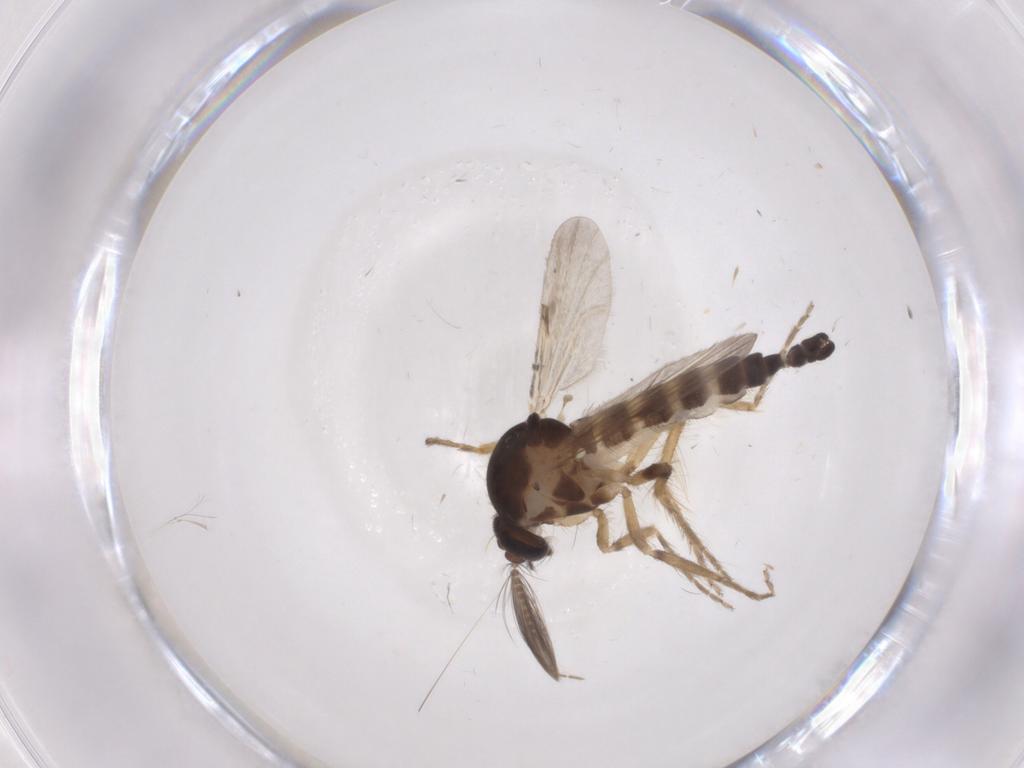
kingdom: Animalia
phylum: Arthropoda
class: Insecta
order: Diptera
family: Ceratopogonidae
